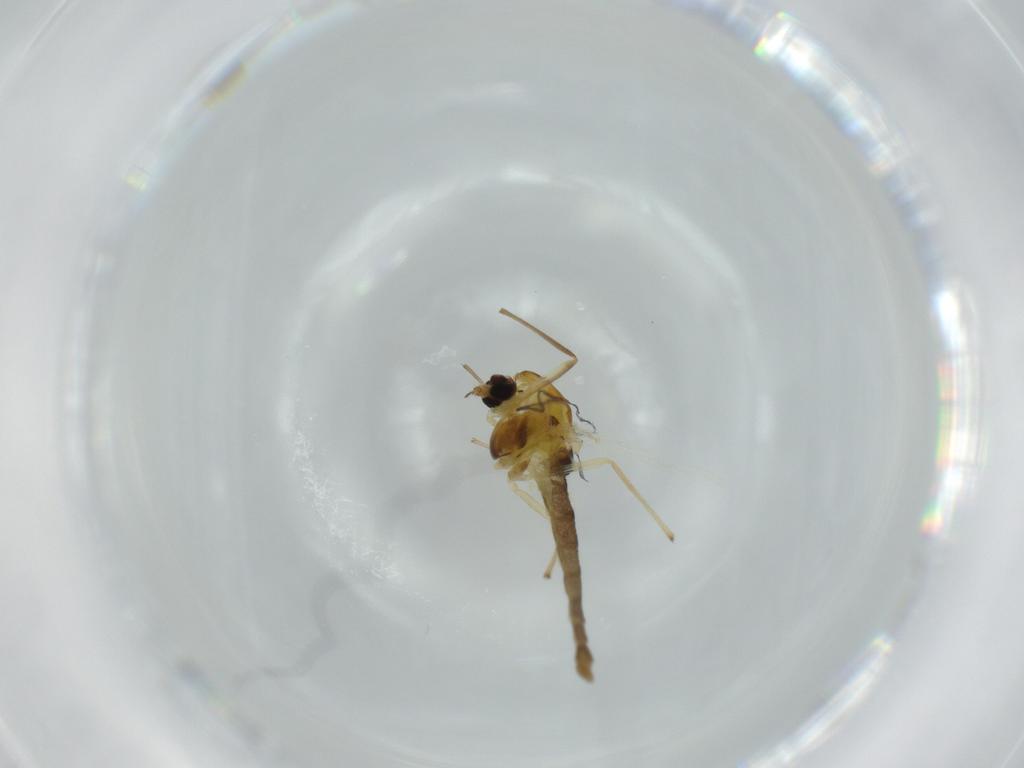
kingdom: Animalia
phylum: Arthropoda
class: Insecta
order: Diptera
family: Chironomidae
